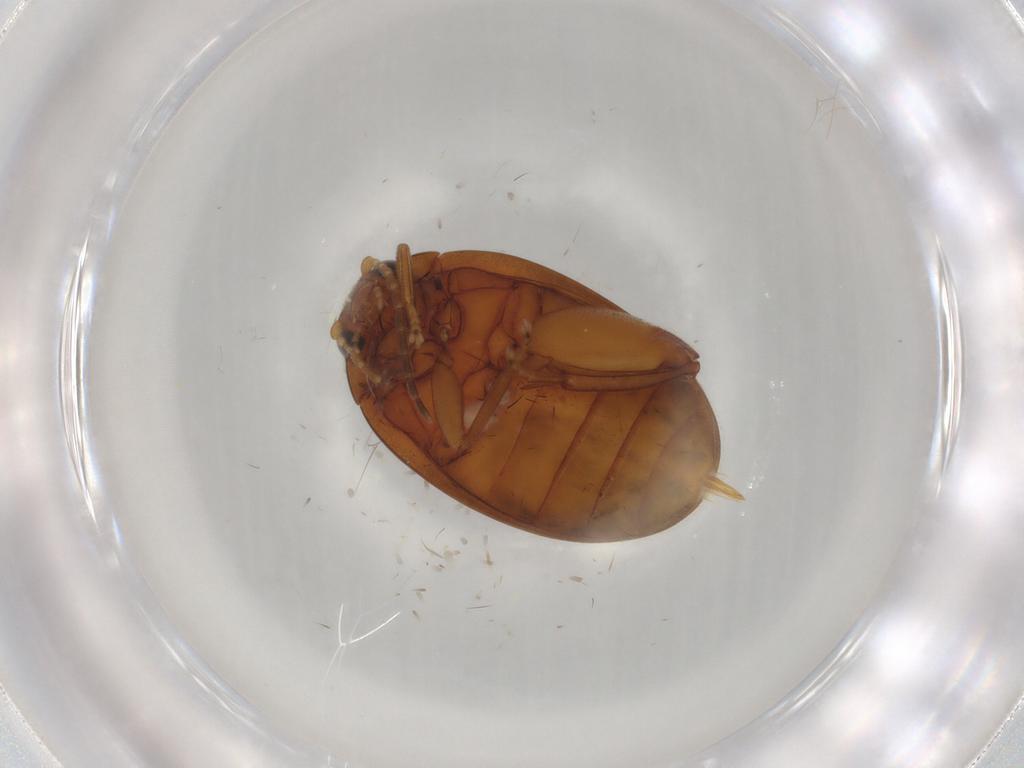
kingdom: Animalia
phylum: Arthropoda
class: Insecta
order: Coleoptera
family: Scirtidae
